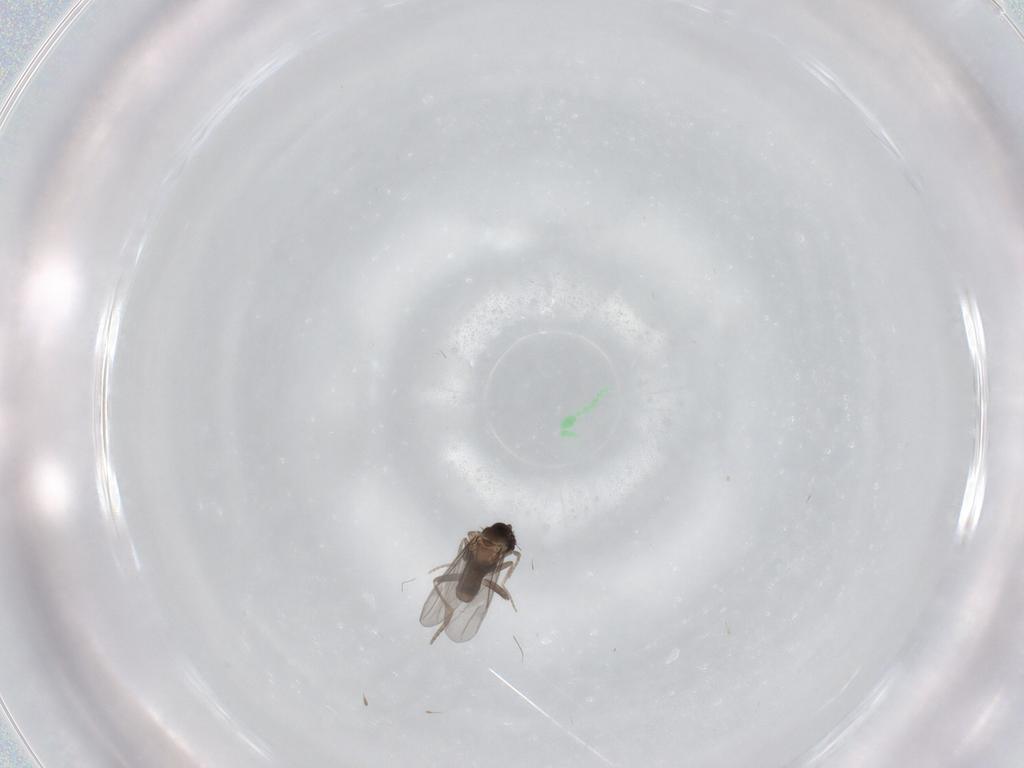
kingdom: Animalia
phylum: Arthropoda
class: Insecta
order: Diptera
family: Phoridae
